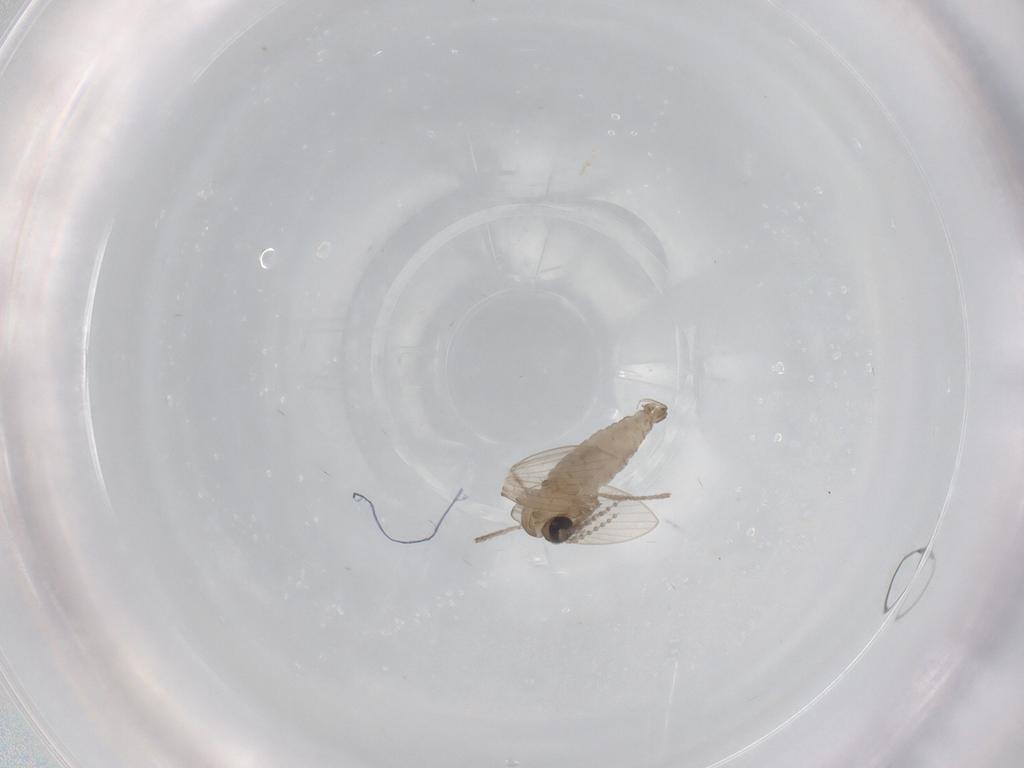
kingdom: Animalia
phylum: Arthropoda
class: Insecta
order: Diptera
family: Psychodidae
